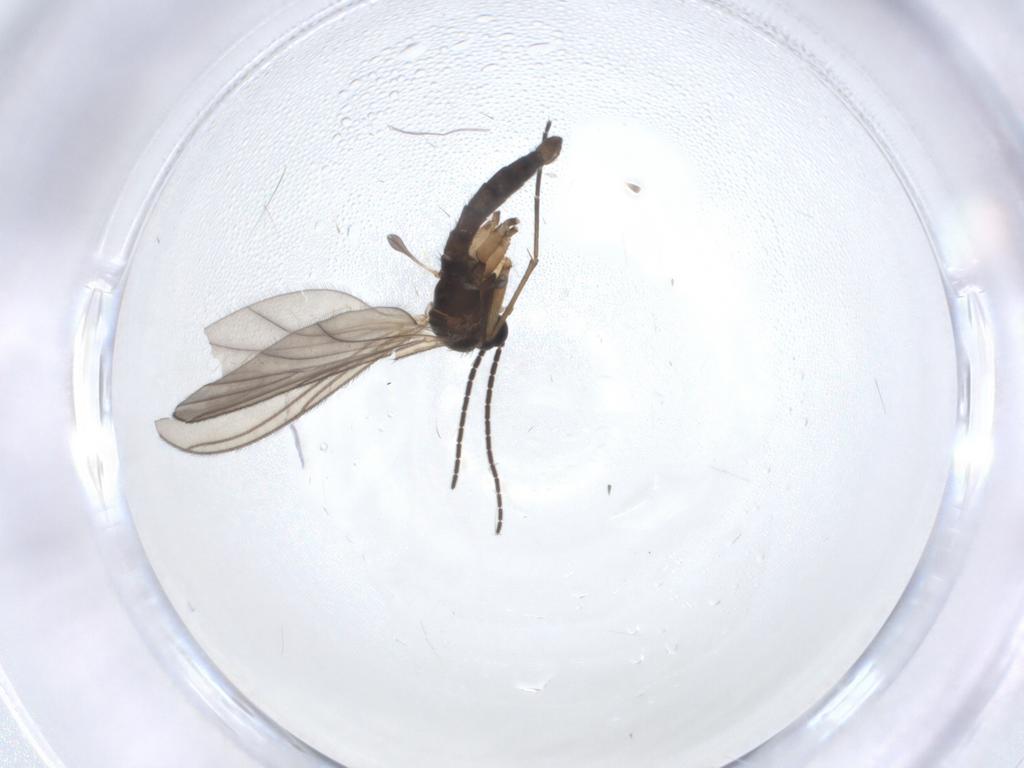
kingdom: Animalia
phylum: Arthropoda
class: Insecta
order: Diptera
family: Sciaridae
